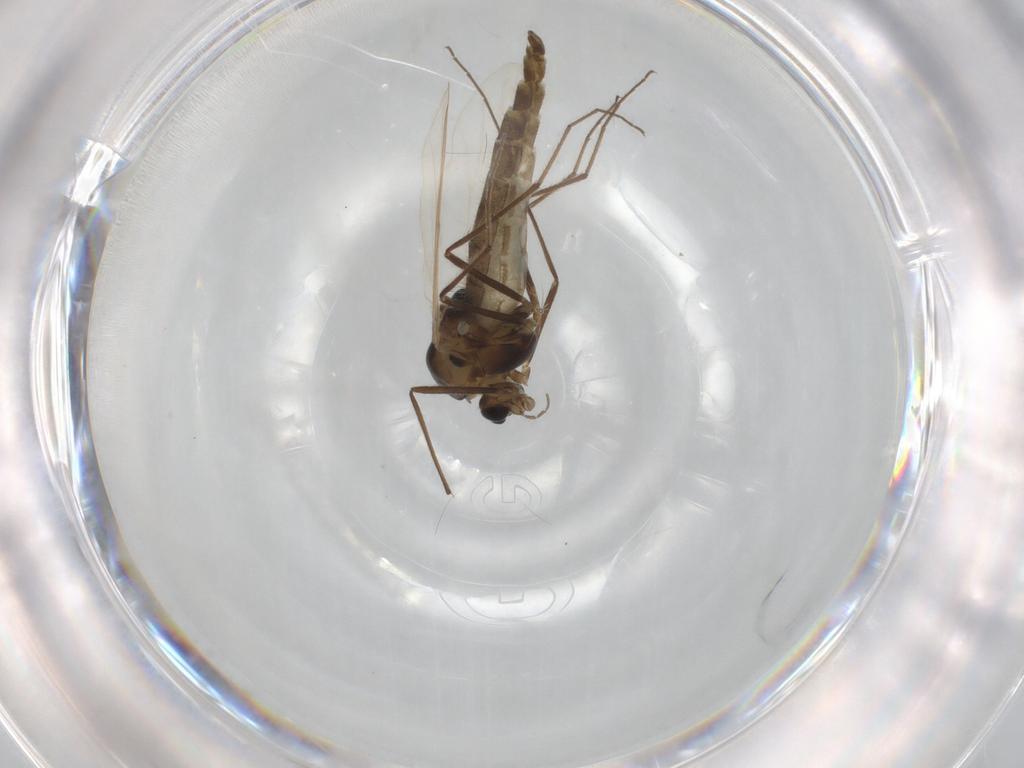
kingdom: Animalia
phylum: Arthropoda
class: Insecta
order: Diptera
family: Chironomidae
